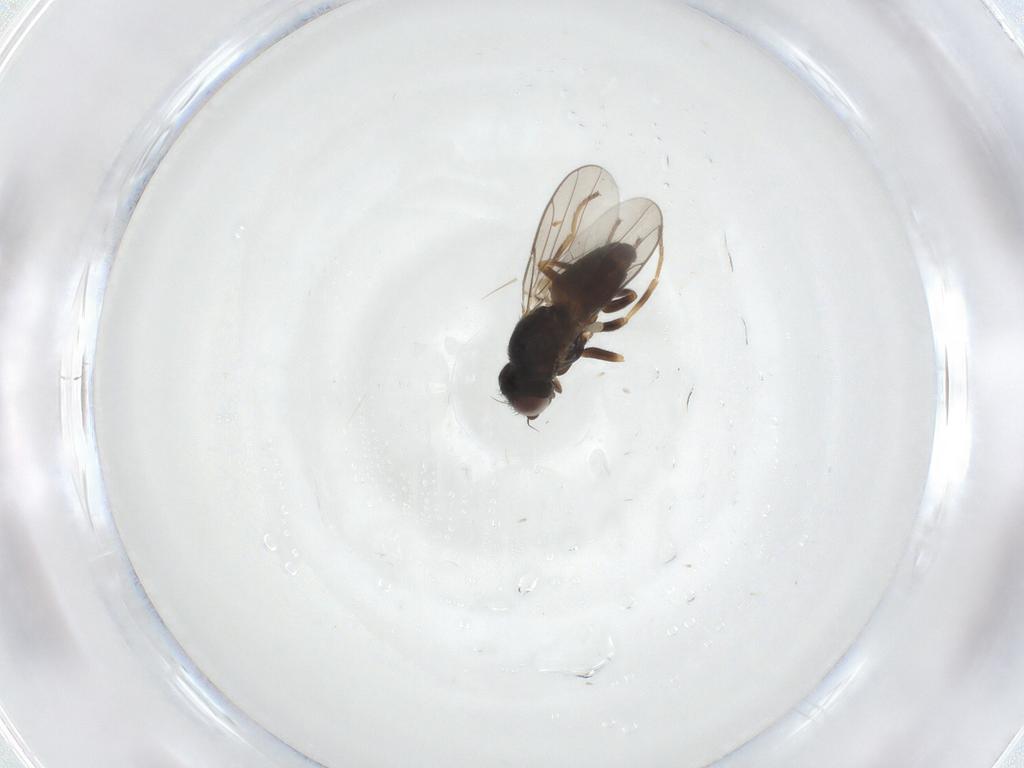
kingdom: Animalia
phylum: Arthropoda
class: Insecta
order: Diptera
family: Chloropidae
